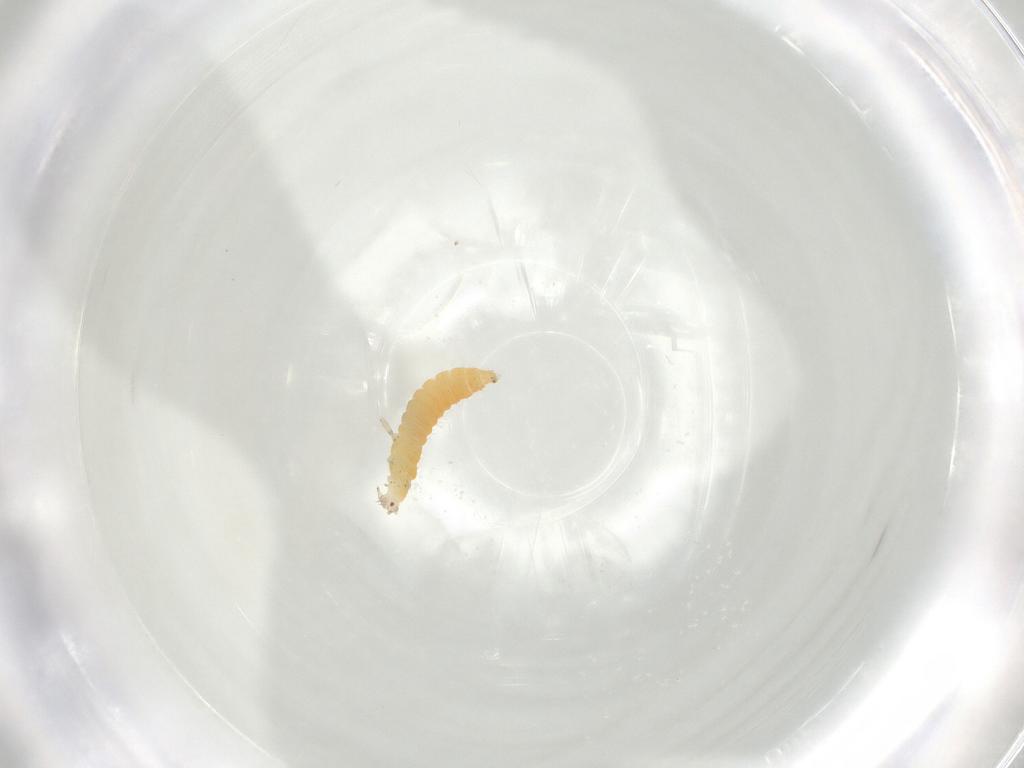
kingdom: Animalia
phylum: Arthropoda
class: Insecta
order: Thysanoptera
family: Aeolothripidae
